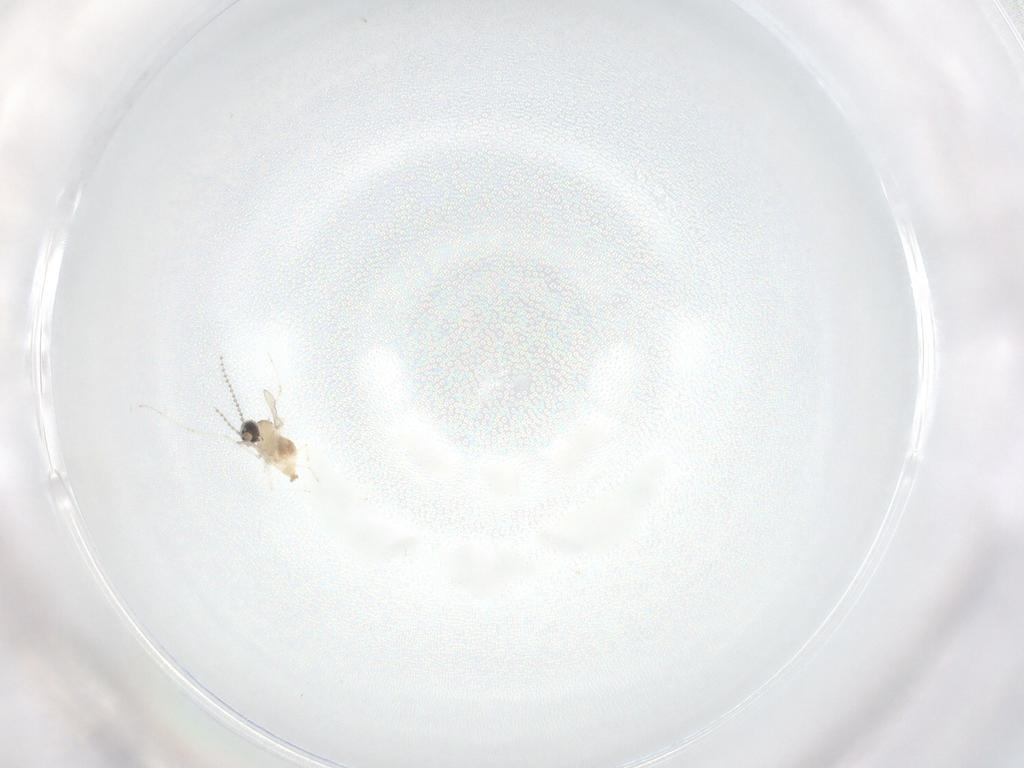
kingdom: Animalia
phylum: Arthropoda
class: Insecta
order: Diptera
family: Cecidomyiidae
